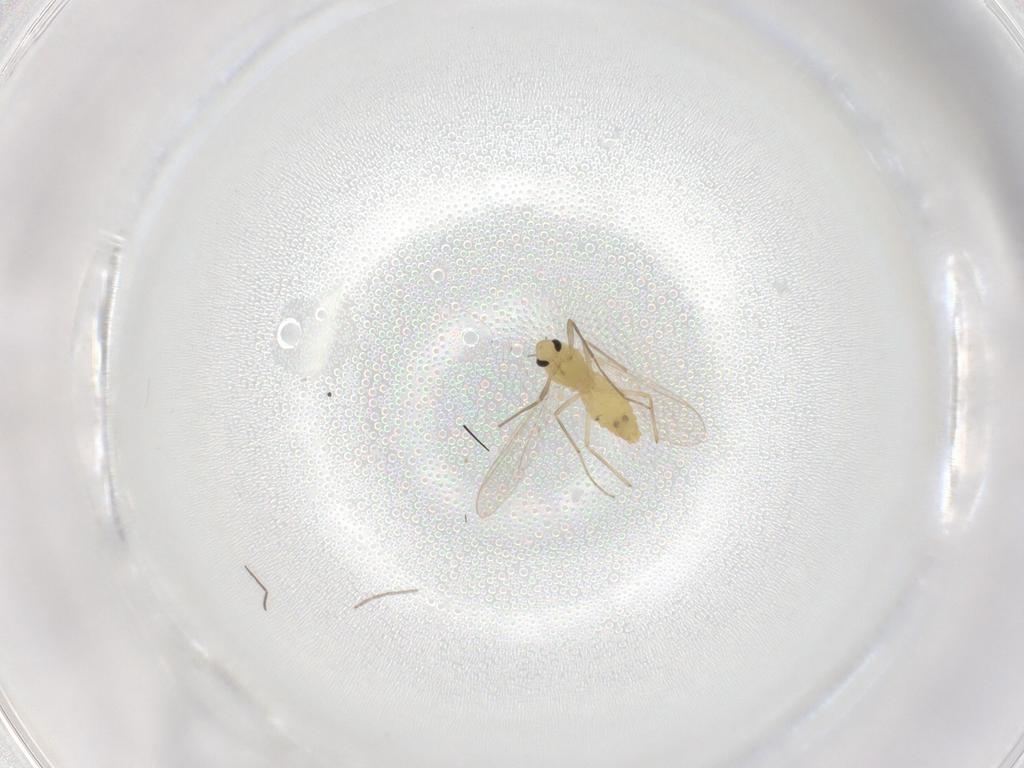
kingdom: Animalia
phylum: Arthropoda
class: Insecta
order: Diptera
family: Chironomidae
